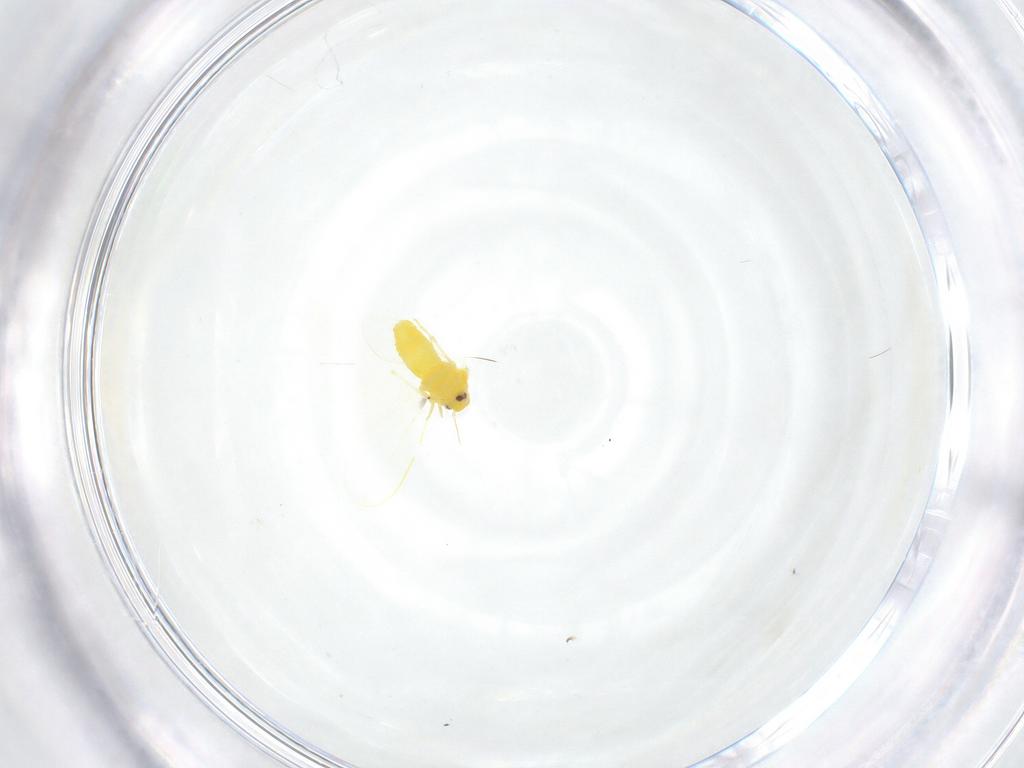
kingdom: Animalia
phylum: Arthropoda
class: Insecta
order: Hemiptera
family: Aleyrodidae
